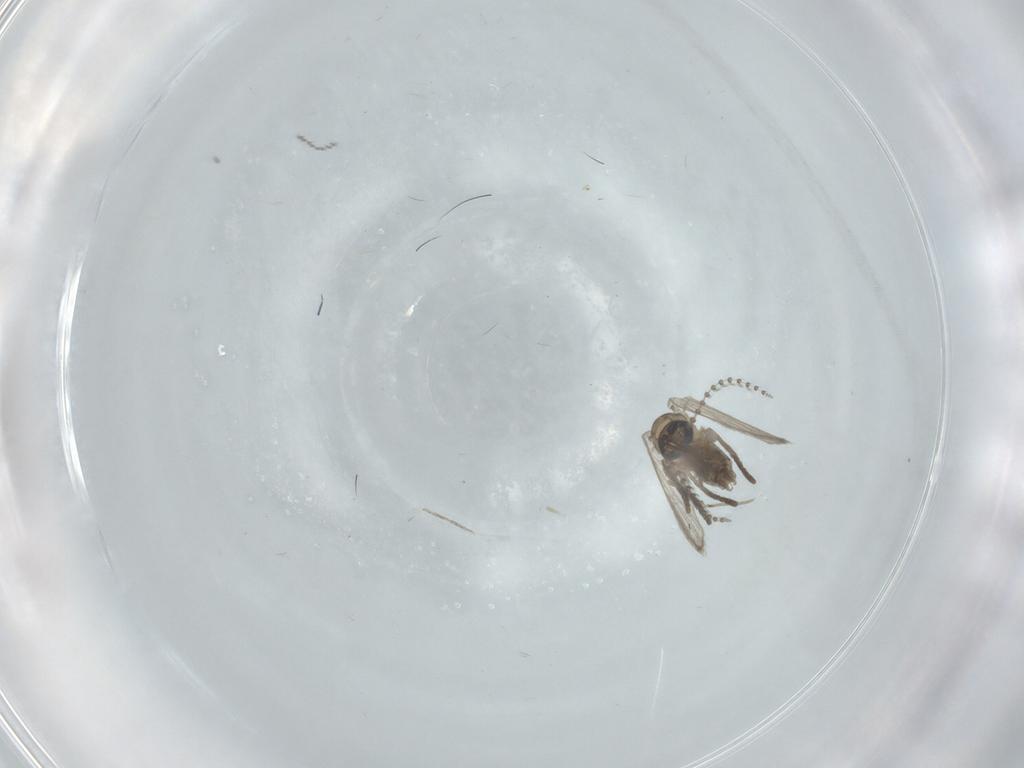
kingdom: Animalia
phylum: Arthropoda
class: Insecta
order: Diptera
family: Psychodidae
